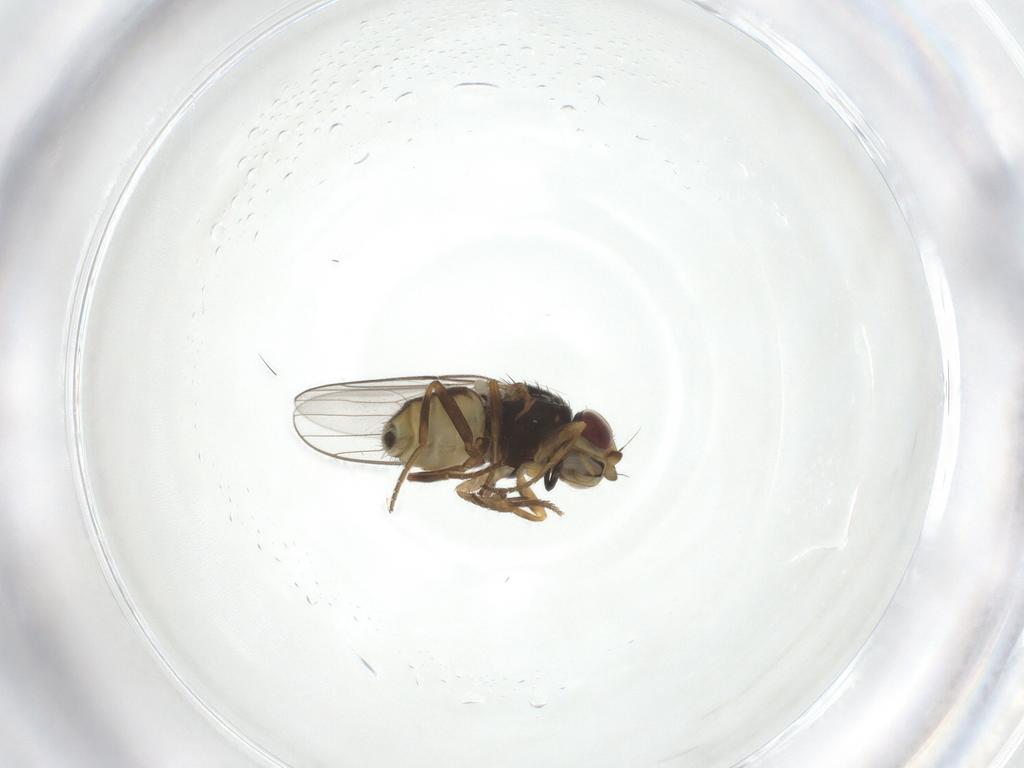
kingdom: Animalia
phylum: Arthropoda
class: Insecta
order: Diptera
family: Chloropidae
